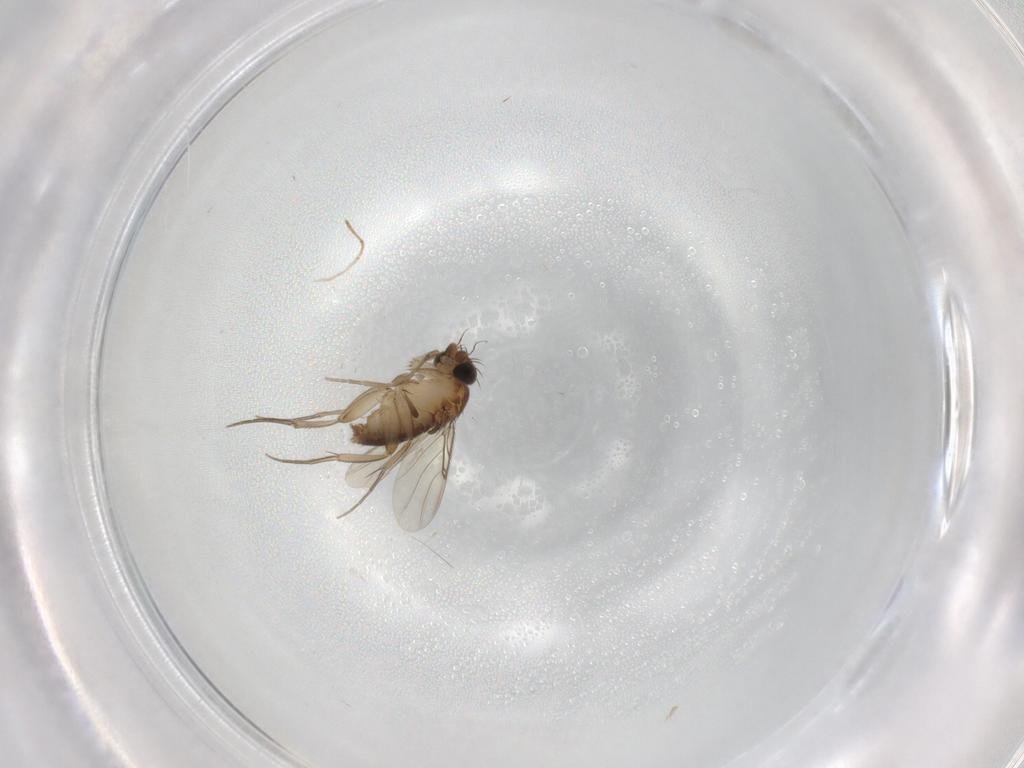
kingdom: Animalia
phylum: Arthropoda
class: Insecta
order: Diptera
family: Phoridae
